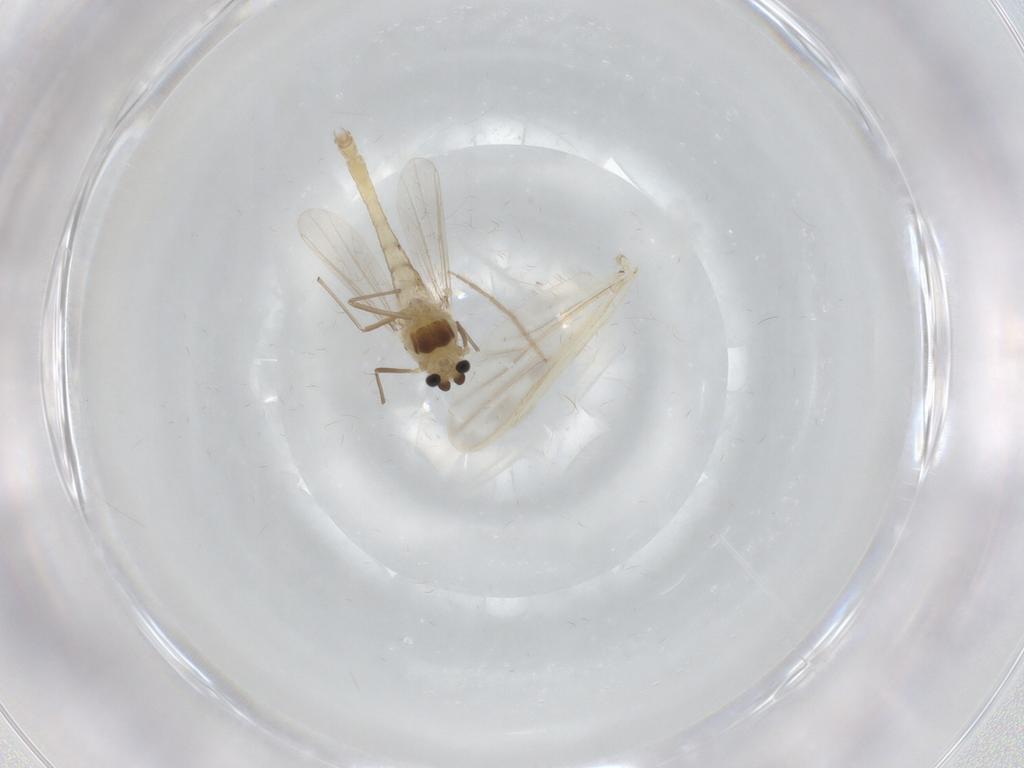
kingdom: Animalia
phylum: Arthropoda
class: Insecta
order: Diptera
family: Chironomidae
